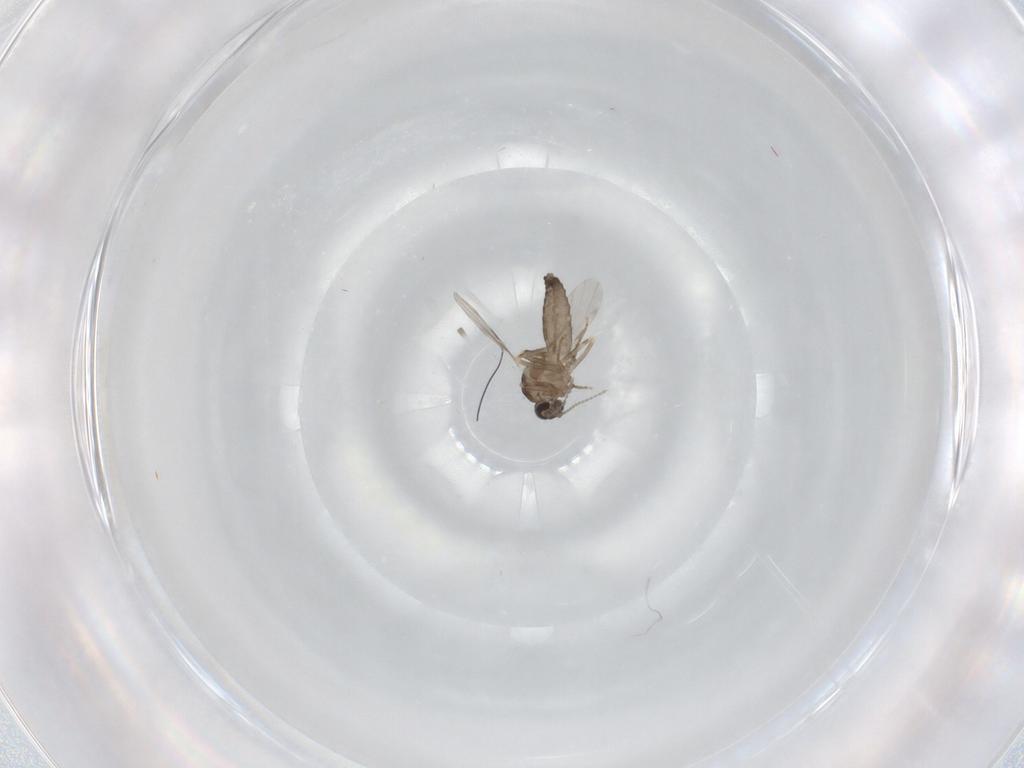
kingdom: Animalia
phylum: Arthropoda
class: Insecta
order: Diptera
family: Ceratopogonidae
